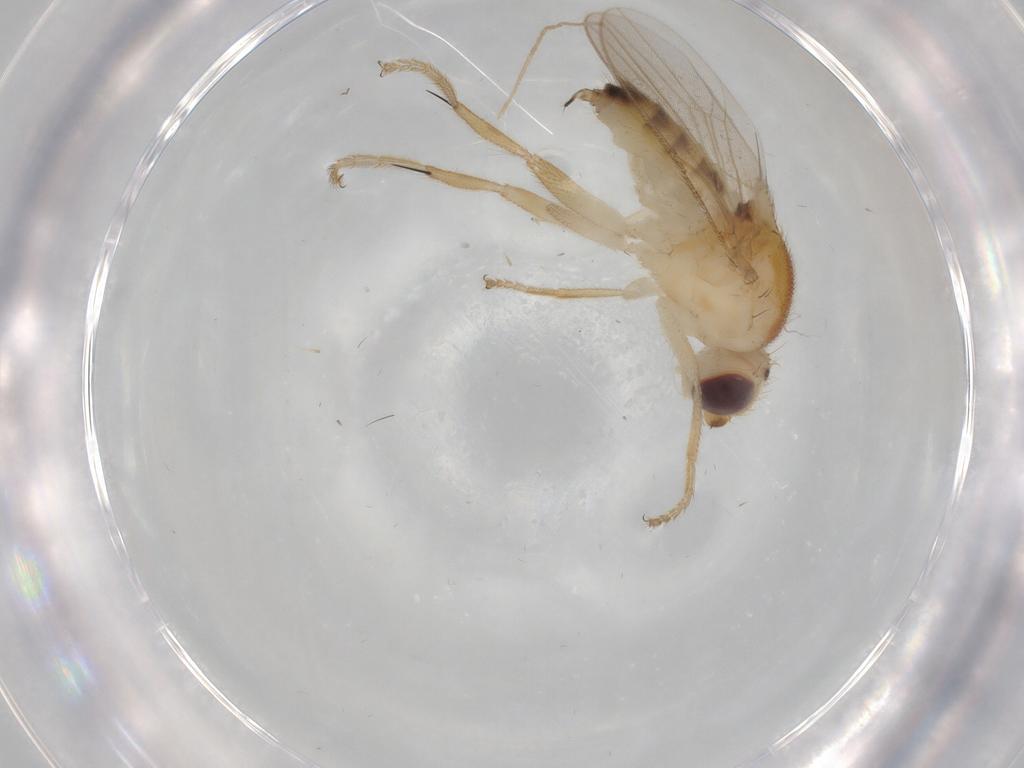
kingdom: Animalia
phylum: Arthropoda
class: Insecta
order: Diptera
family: Chloropidae
